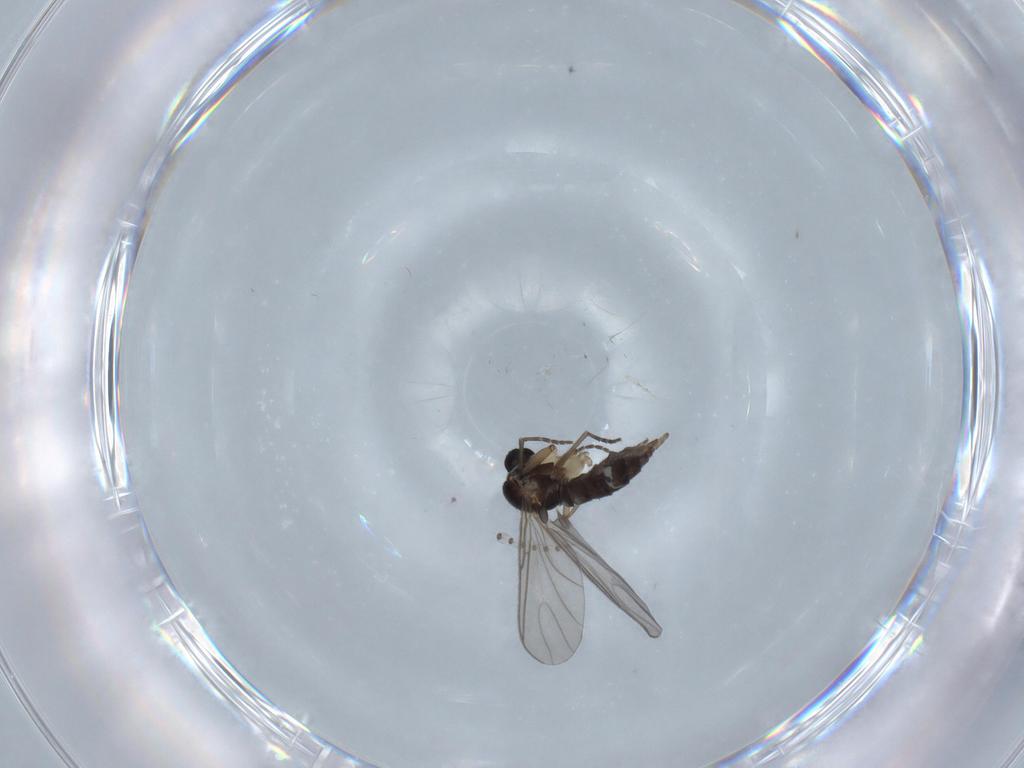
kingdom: Animalia
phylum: Arthropoda
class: Insecta
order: Diptera
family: Sciaridae
